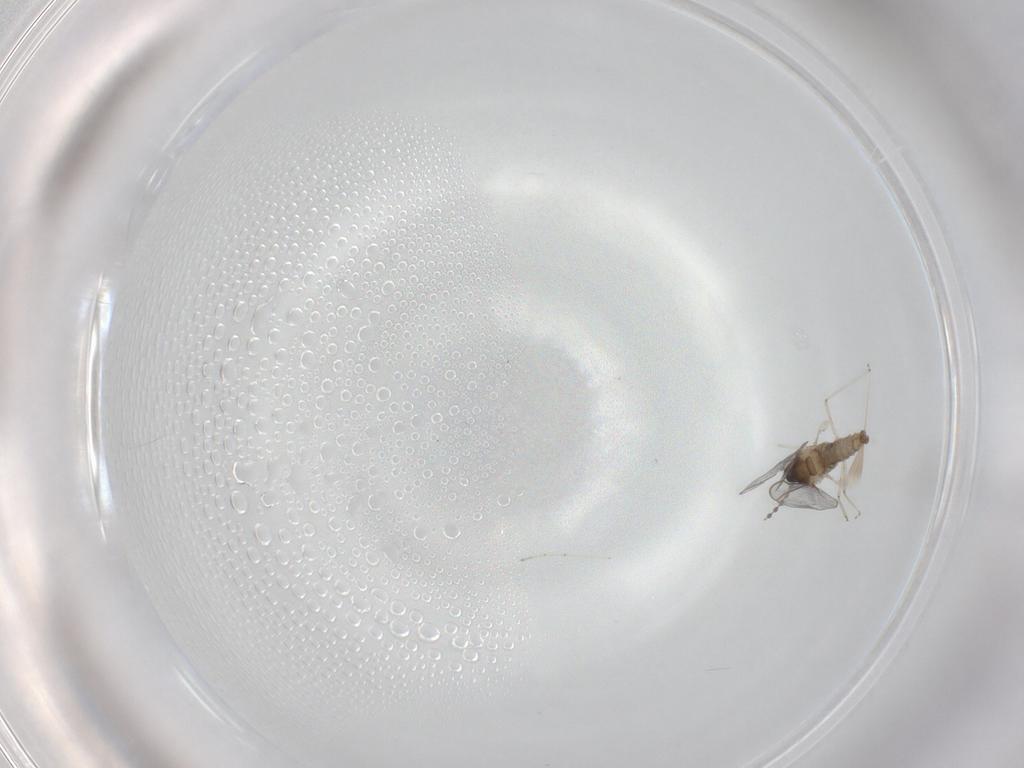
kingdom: Animalia
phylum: Arthropoda
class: Insecta
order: Diptera
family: Cecidomyiidae
